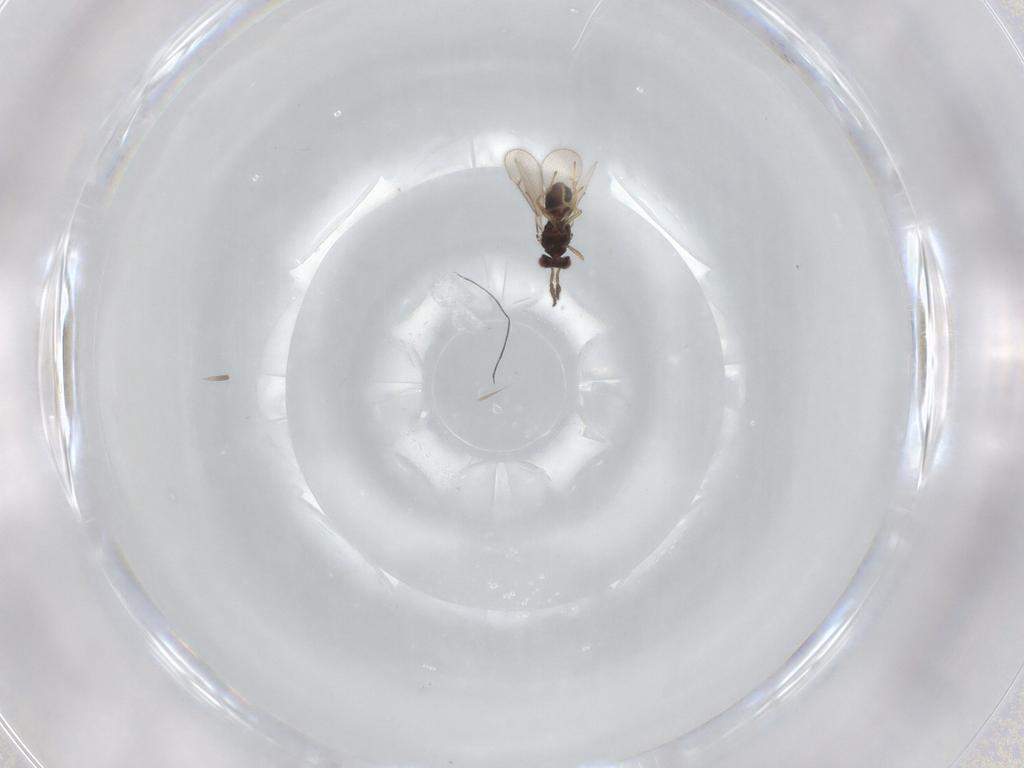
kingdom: Animalia
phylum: Arthropoda
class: Insecta
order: Hymenoptera
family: Eulophidae
